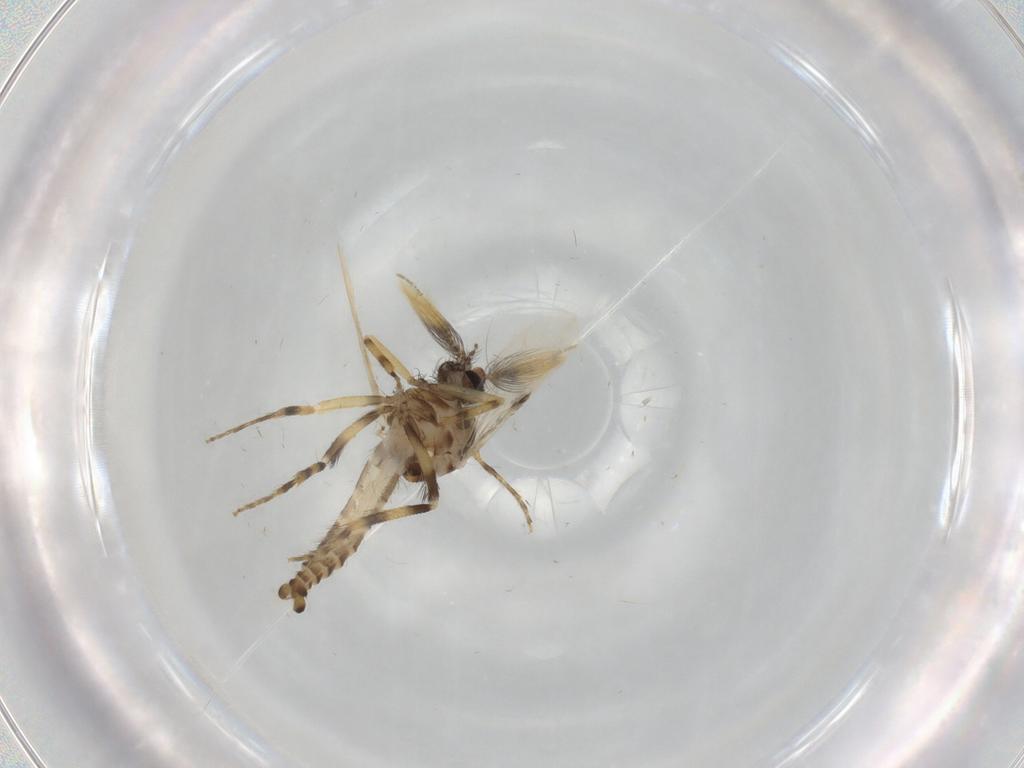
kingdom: Animalia
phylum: Arthropoda
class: Insecta
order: Diptera
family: Ceratopogonidae
